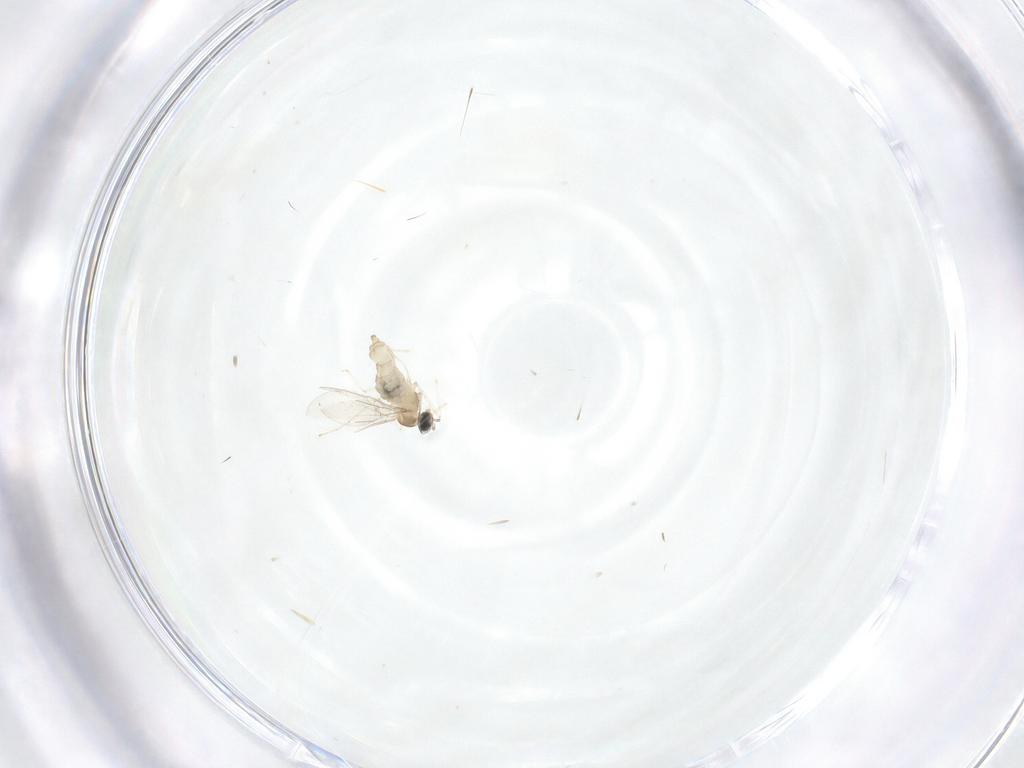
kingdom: Animalia
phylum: Arthropoda
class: Insecta
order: Diptera
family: Cecidomyiidae
